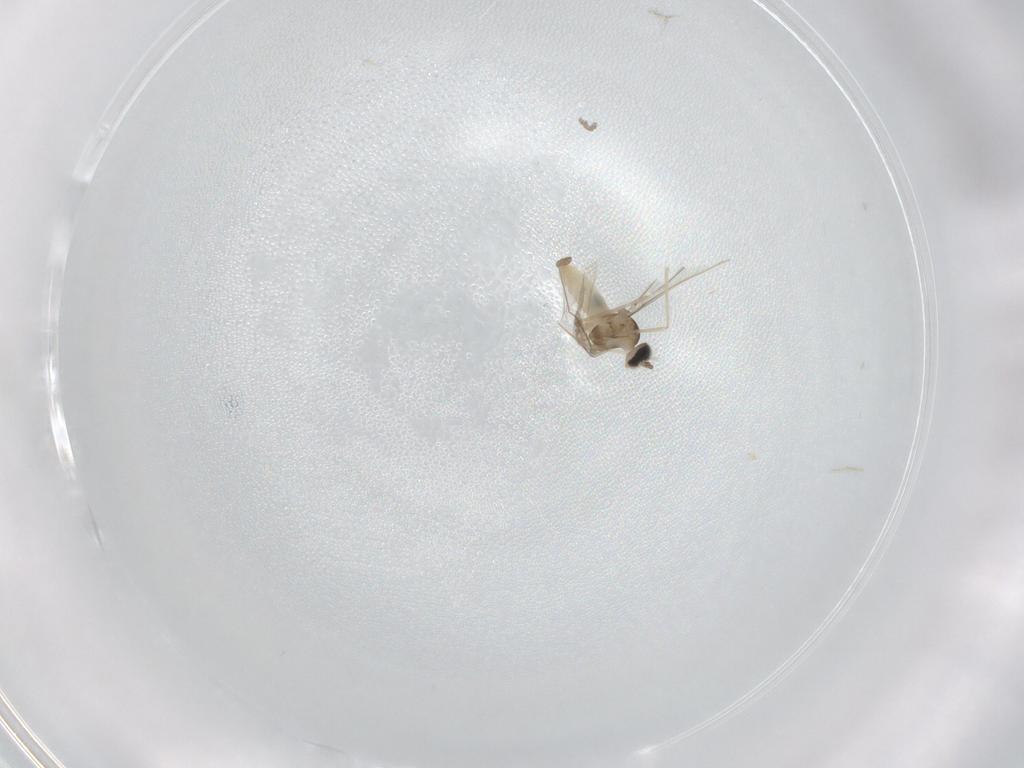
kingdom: Animalia
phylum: Arthropoda
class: Insecta
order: Diptera
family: Cecidomyiidae
